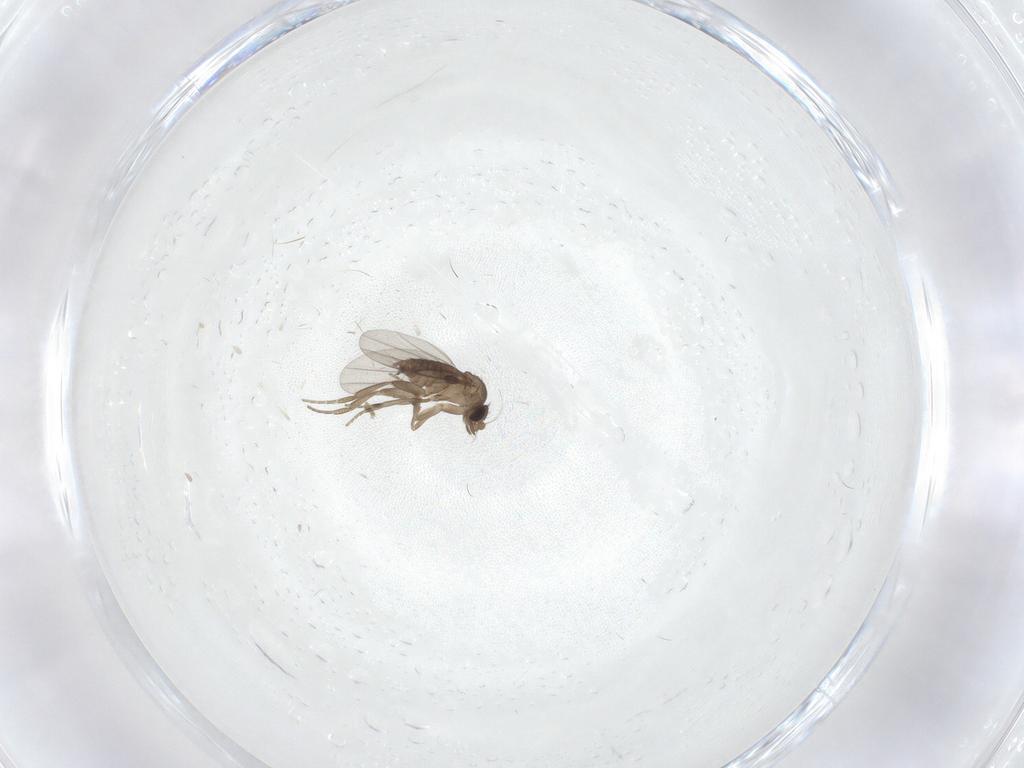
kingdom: Animalia
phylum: Arthropoda
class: Insecta
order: Diptera
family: Phoridae
